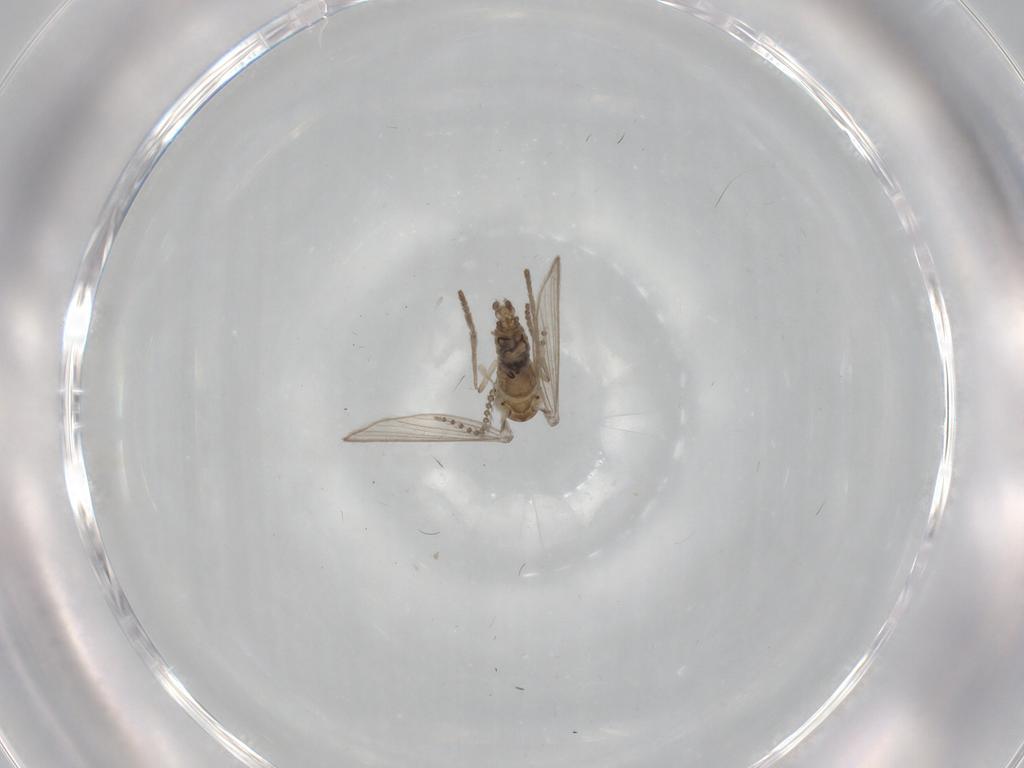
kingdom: Animalia
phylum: Arthropoda
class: Insecta
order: Diptera
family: Psychodidae
